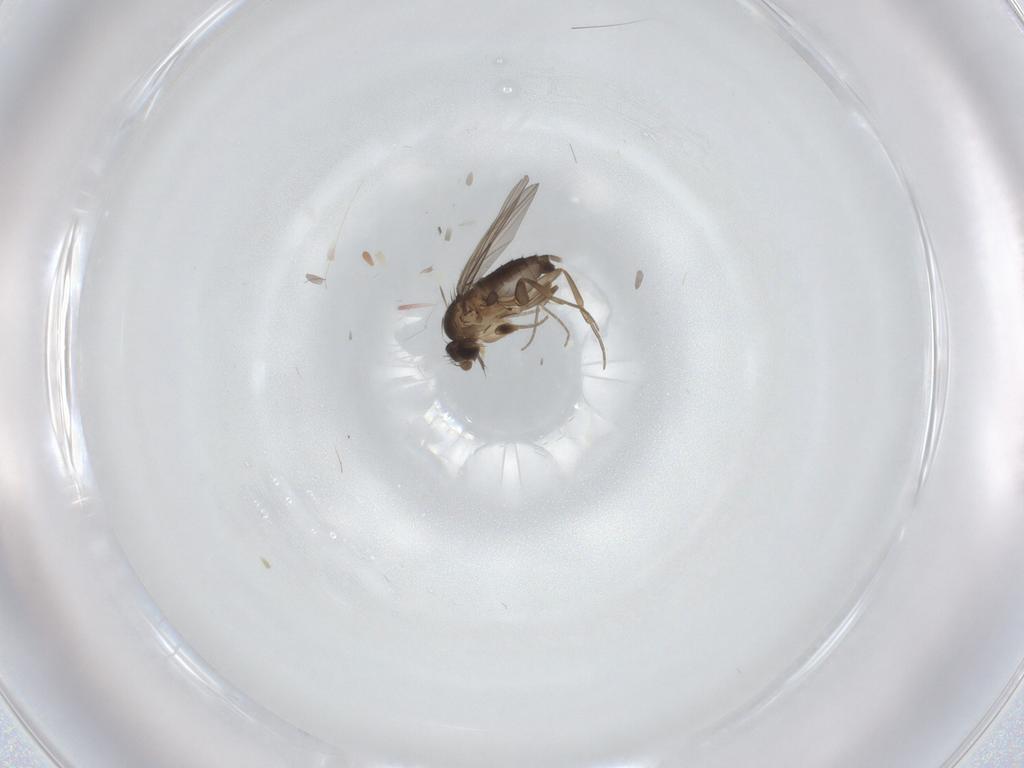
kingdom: Animalia
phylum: Arthropoda
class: Insecta
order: Diptera
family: Phoridae
